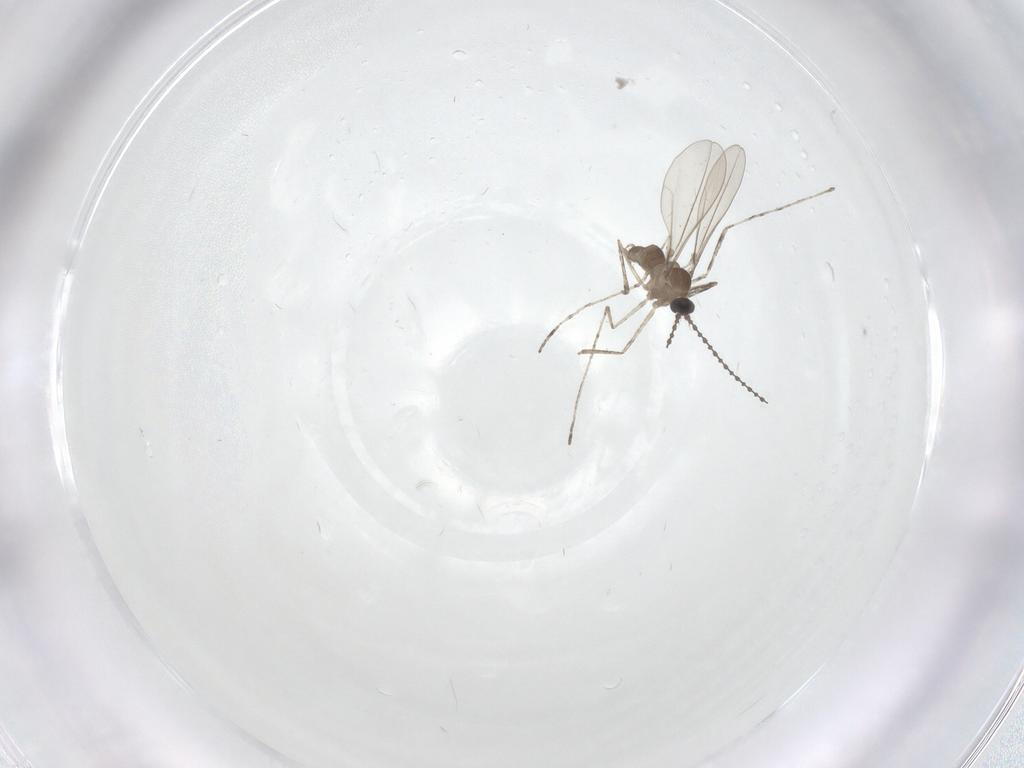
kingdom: Animalia
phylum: Arthropoda
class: Insecta
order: Diptera
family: Cecidomyiidae
